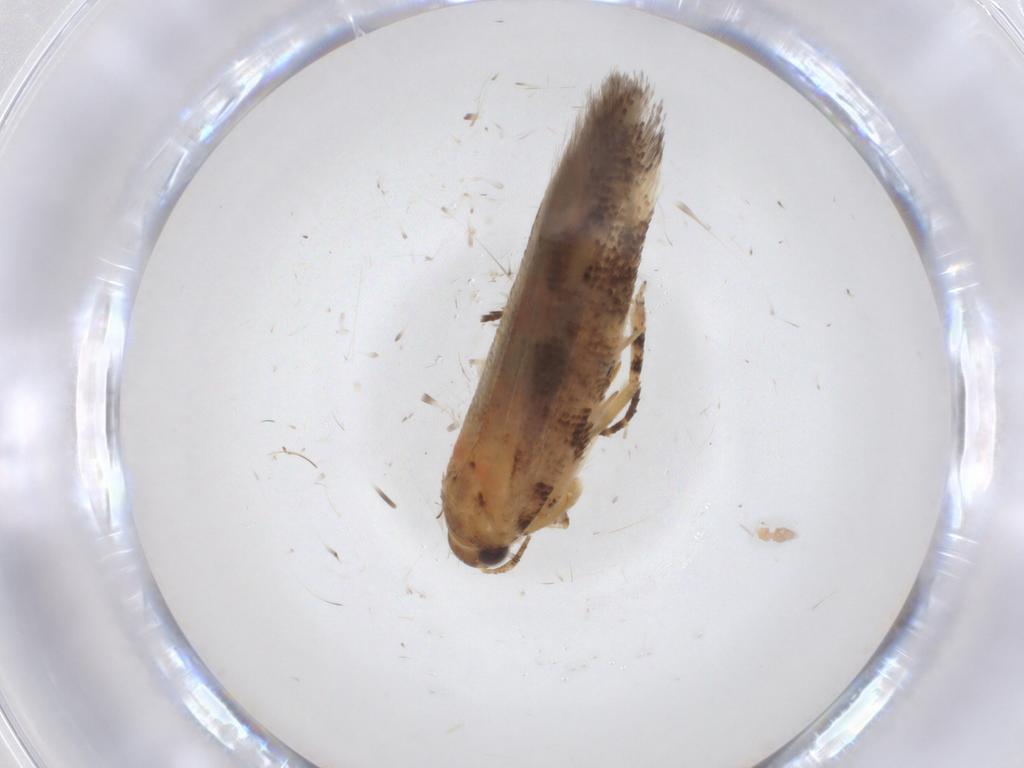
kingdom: Animalia
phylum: Arthropoda
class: Insecta
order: Lepidoptera
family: Gelechiidae
